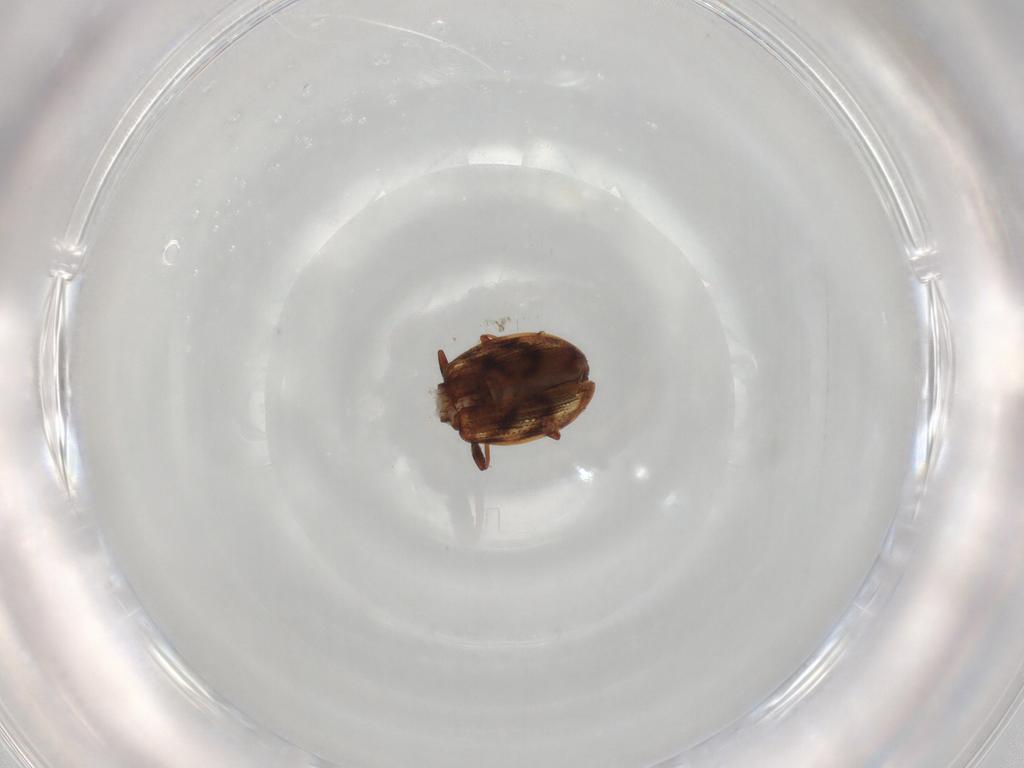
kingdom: Animalia
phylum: Arthropoda
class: Insecta
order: Coleoptera
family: Latridiidae
